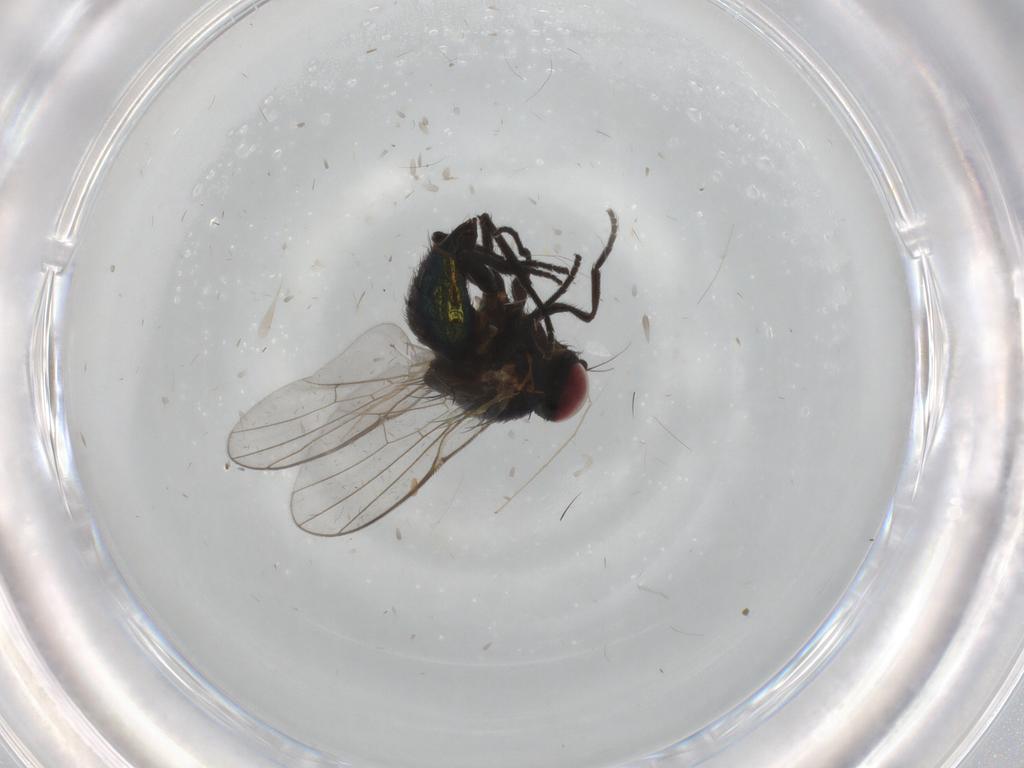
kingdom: Animalia
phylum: Arthropoda
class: Insecta
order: Diptera
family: Agromyzidae
